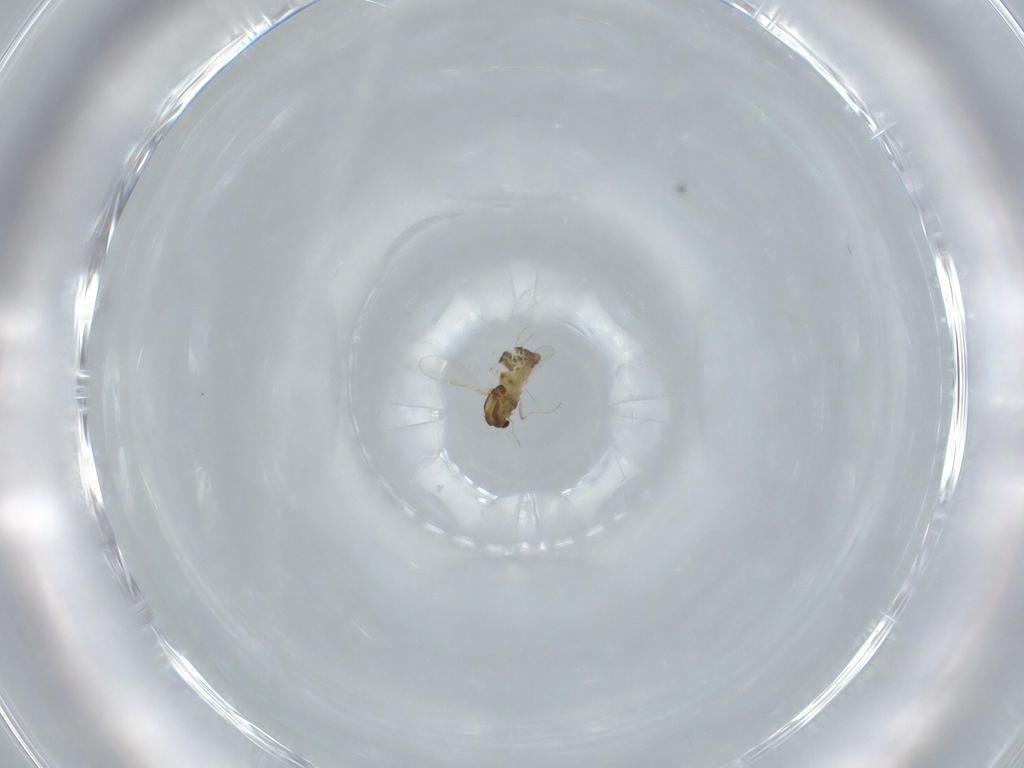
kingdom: Animalia
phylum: Arthropoda
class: Insecta
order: Diptera
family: Chironomidae
